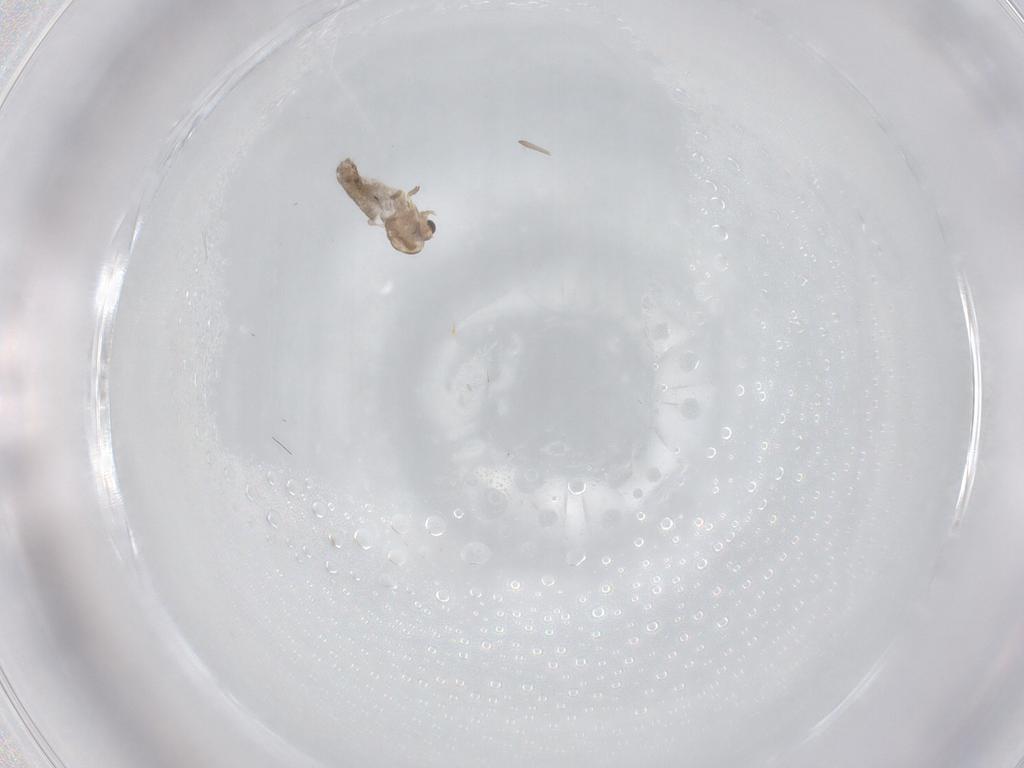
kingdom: Animalia
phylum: Arthropoda
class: Insecta
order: Diptera
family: Chironomidae
